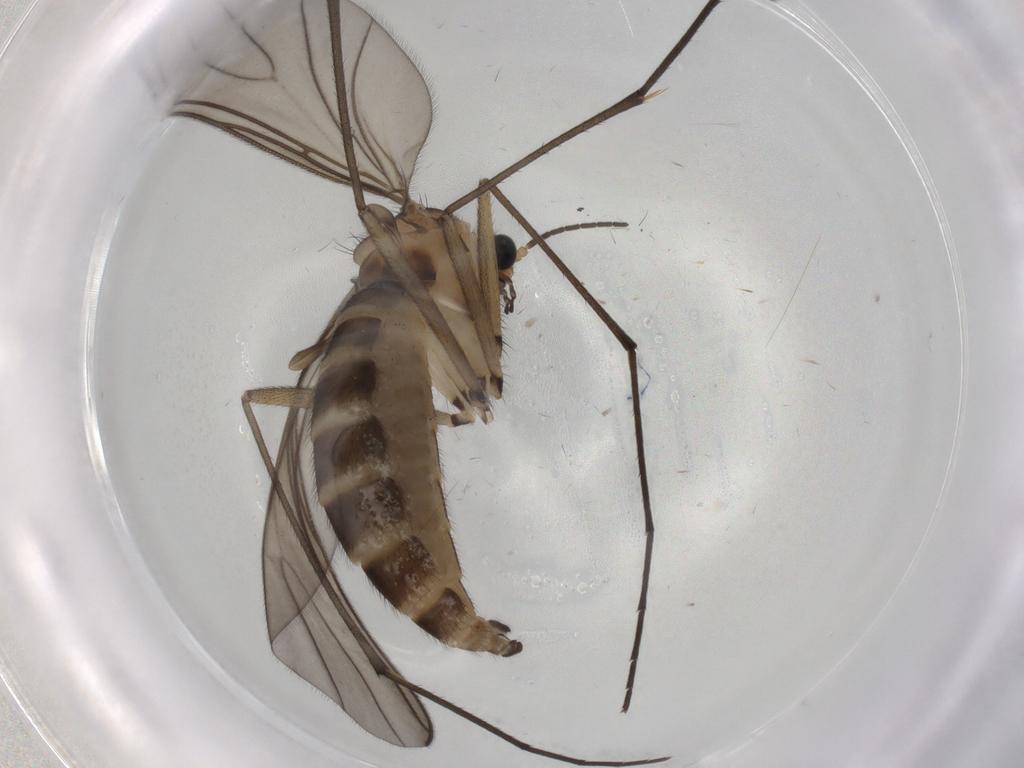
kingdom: Animalia
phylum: Arthropoda
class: Insecta
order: Diptera
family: Sciaridae
